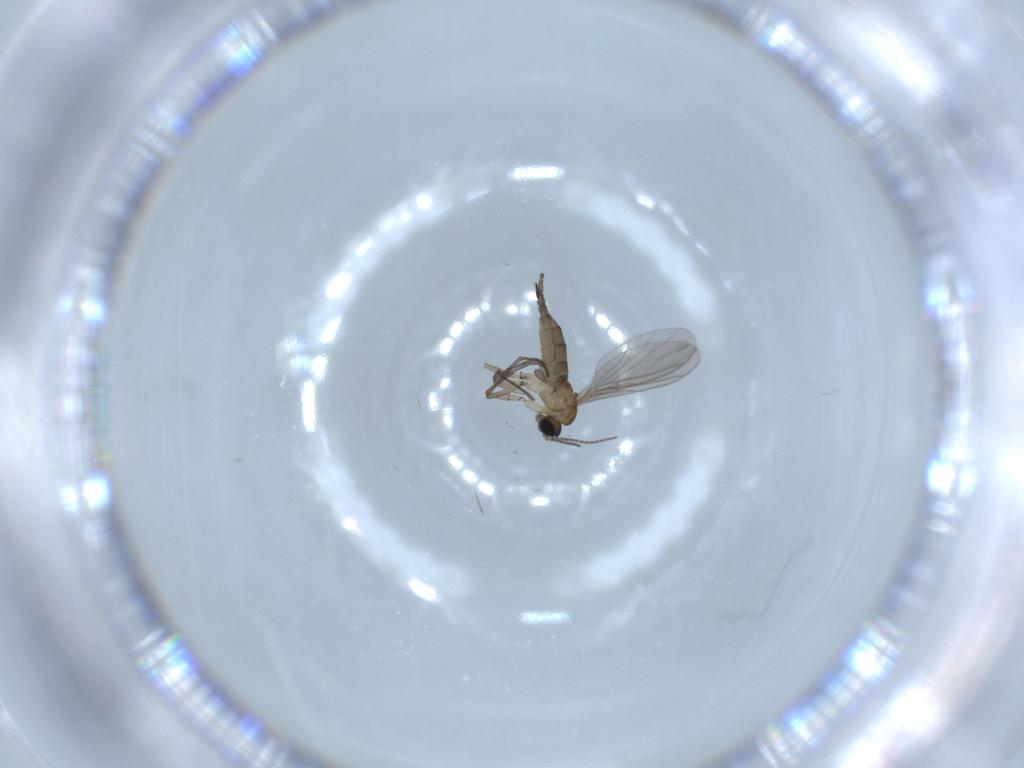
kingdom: Animalia
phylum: Arthropoda
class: Insecta
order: Diptera
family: Sciaridae
